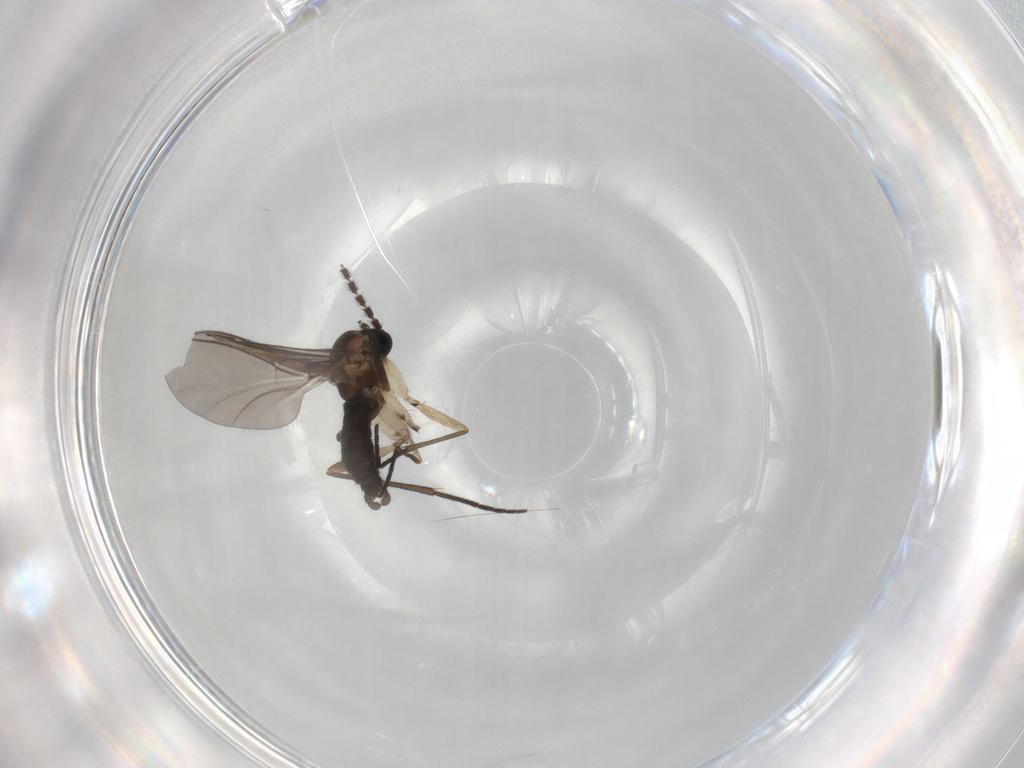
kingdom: Animalia
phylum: Arthropoda
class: Insecta
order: Diptera
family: Sciaridae
